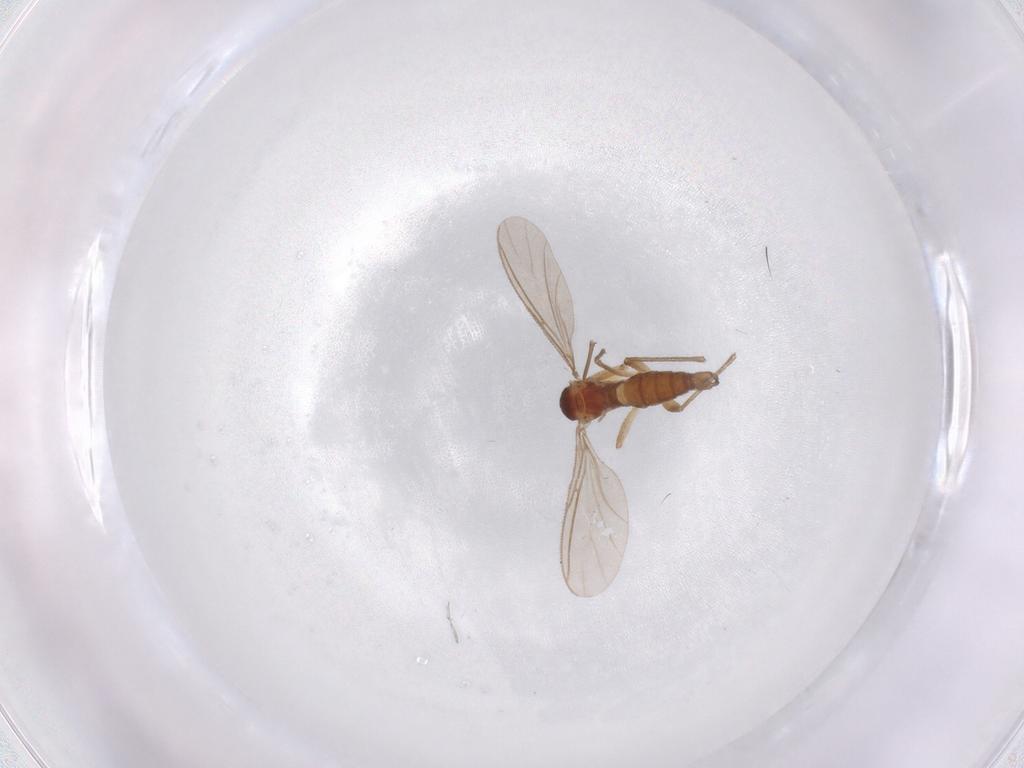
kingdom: Animalia
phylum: Arthropoda
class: Insecta
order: Diptera
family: Sciaridae
